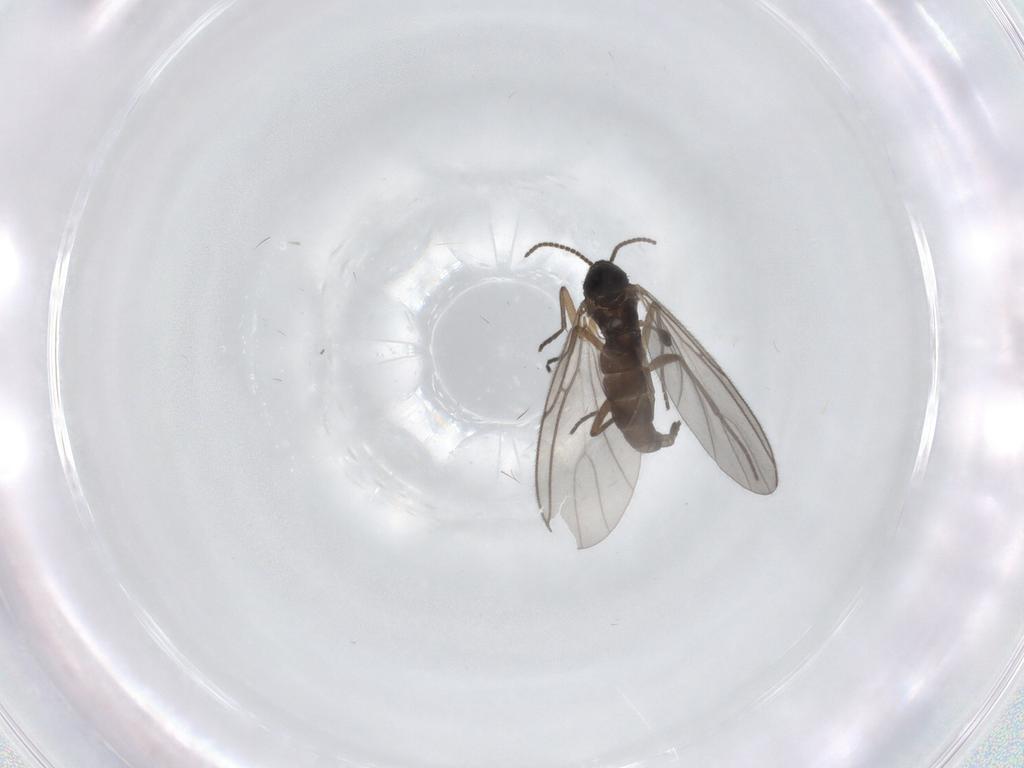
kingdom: Animalia
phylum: Arthropoda
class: Insecta
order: Diptera
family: Sciaridae
